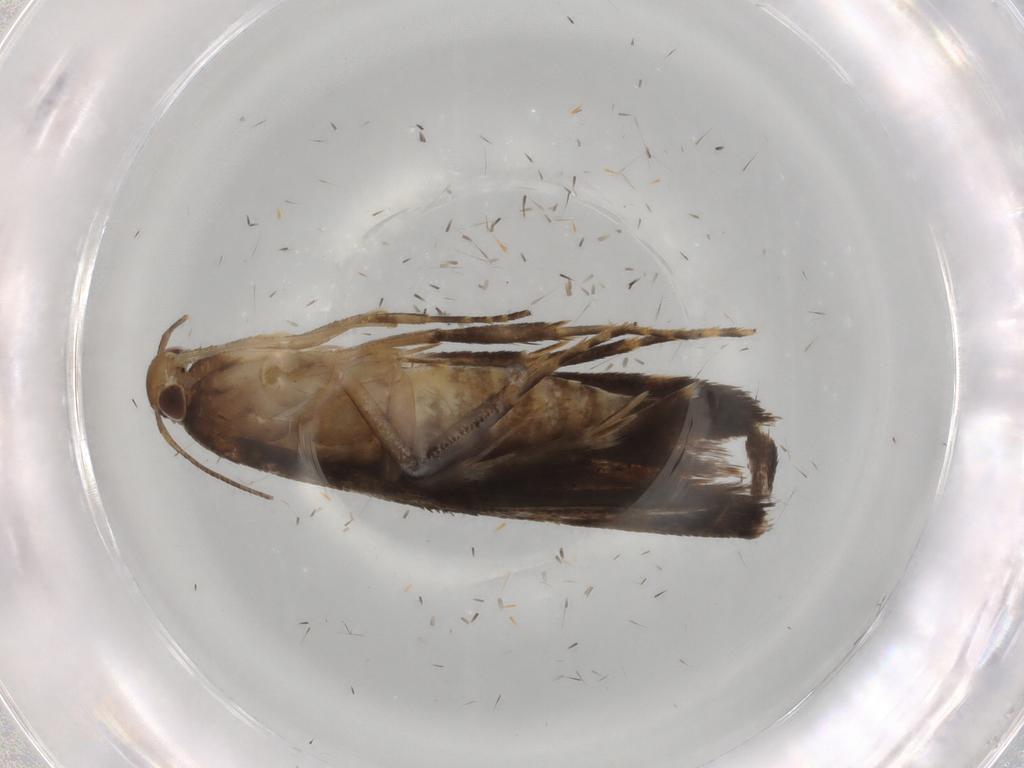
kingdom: Animalia
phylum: Arthropoda
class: Insecta
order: Lepidoptera
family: Gelechiidae
